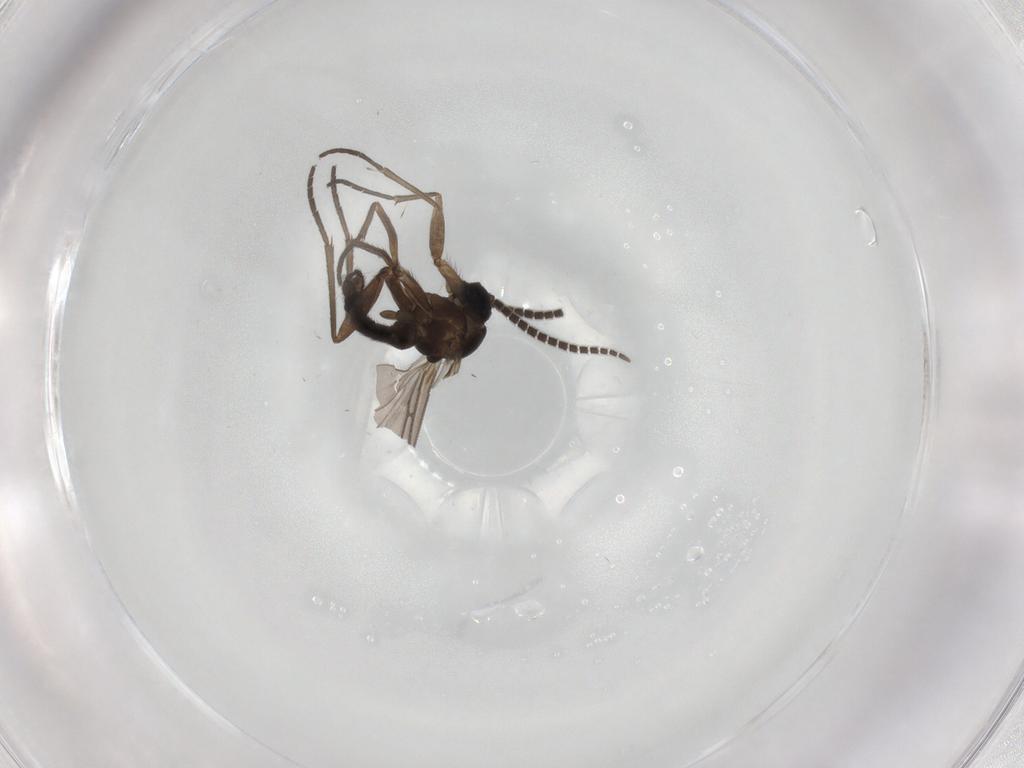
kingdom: Animalia
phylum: Arthropoda
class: Insecta
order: Diptera
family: Sciaridae
